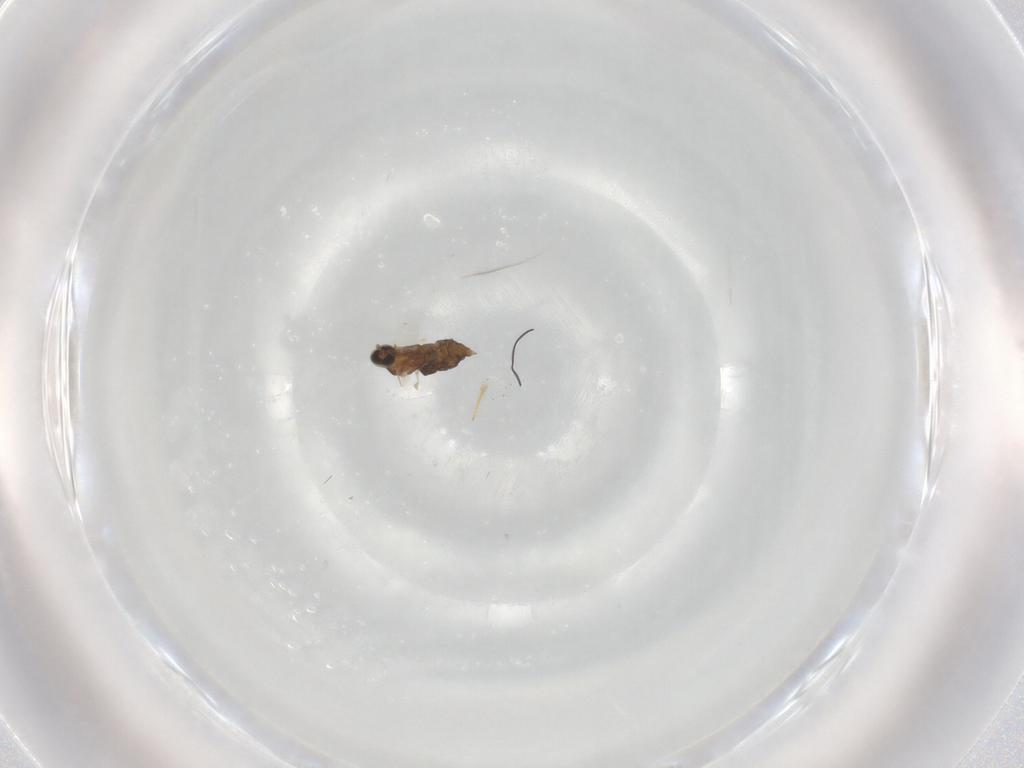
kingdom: Animalia
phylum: Arthropoda
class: Insecta
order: Diptera
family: Cecidomyiidae
